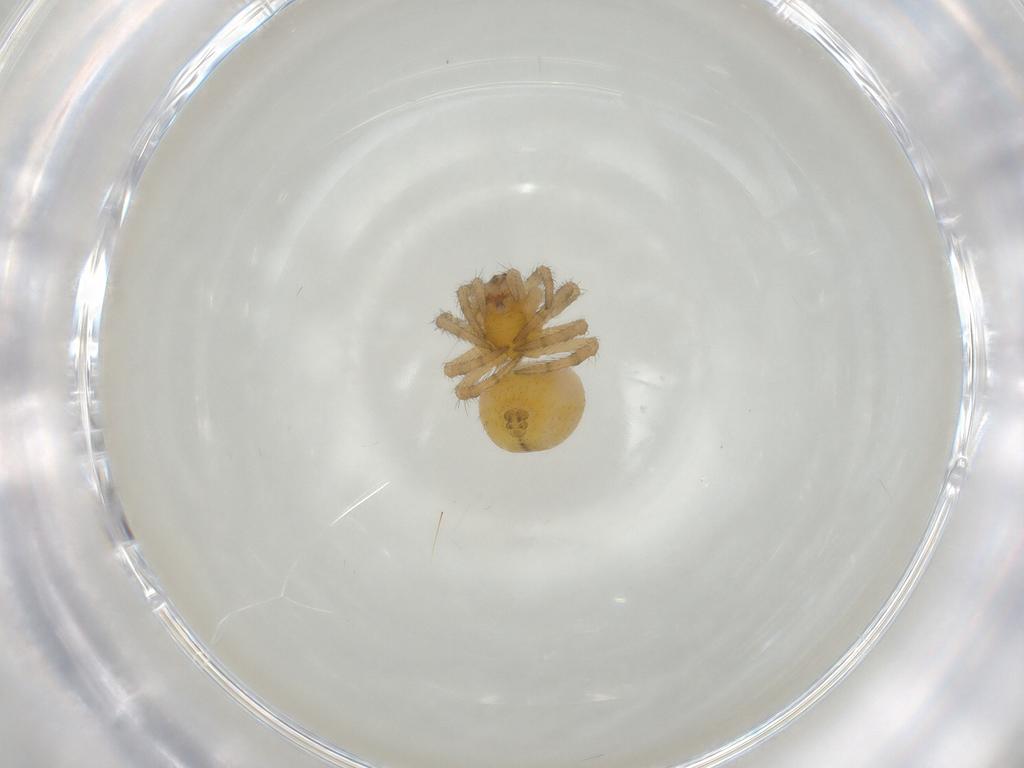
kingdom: Animalia
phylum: Arthropoda
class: Arachnida
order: Araneae
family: Araneidae
